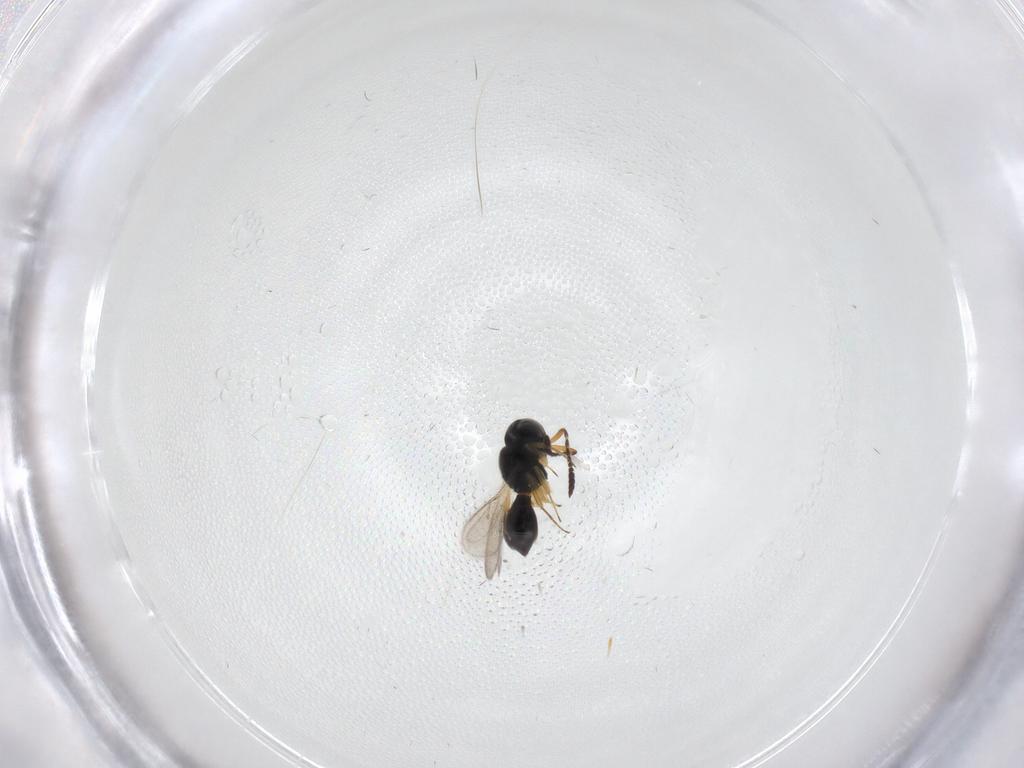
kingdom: Animalia
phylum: Arthropoda
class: Insecta
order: Hymenoptera
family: Scelionidae
